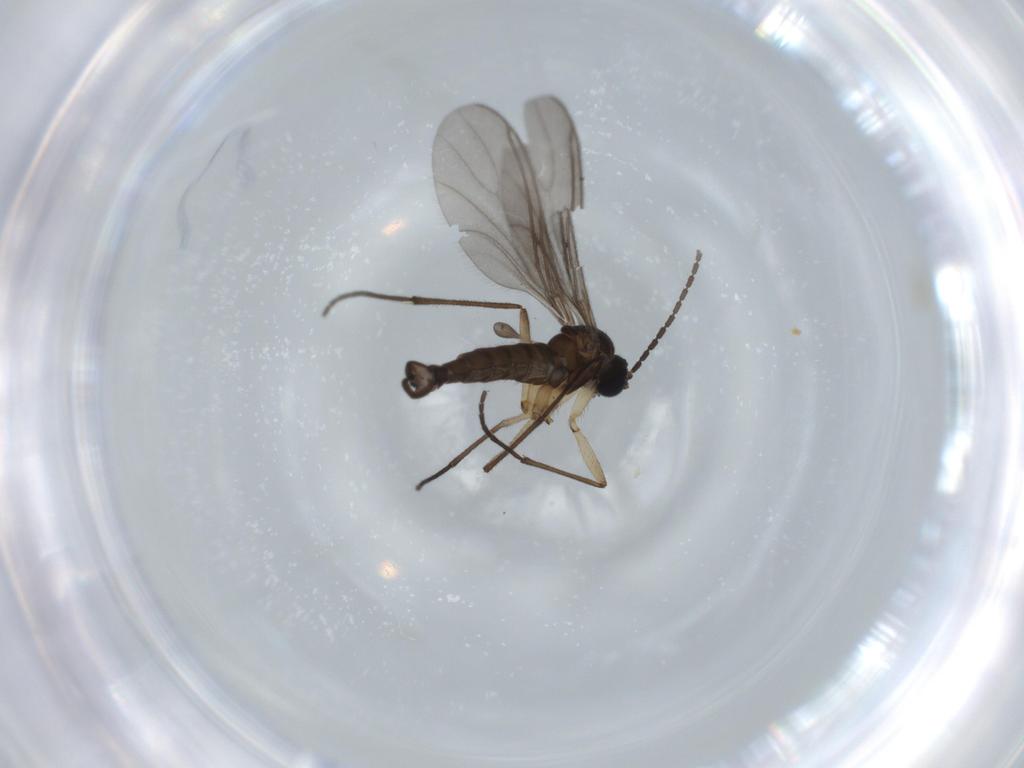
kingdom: Animalia
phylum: Arthropoda
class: Insecta
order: Diptera
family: Sciaridae
